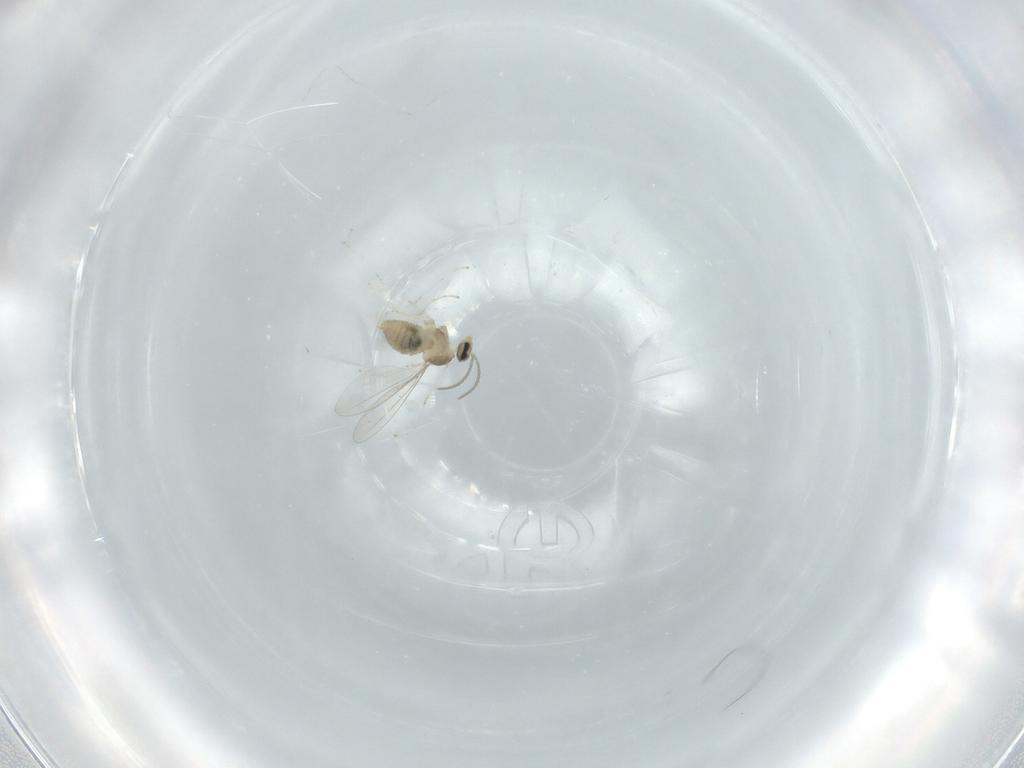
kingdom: Animalia
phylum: Arthropoda
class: Insecta
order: Diptera
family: Cecidomyiidae
